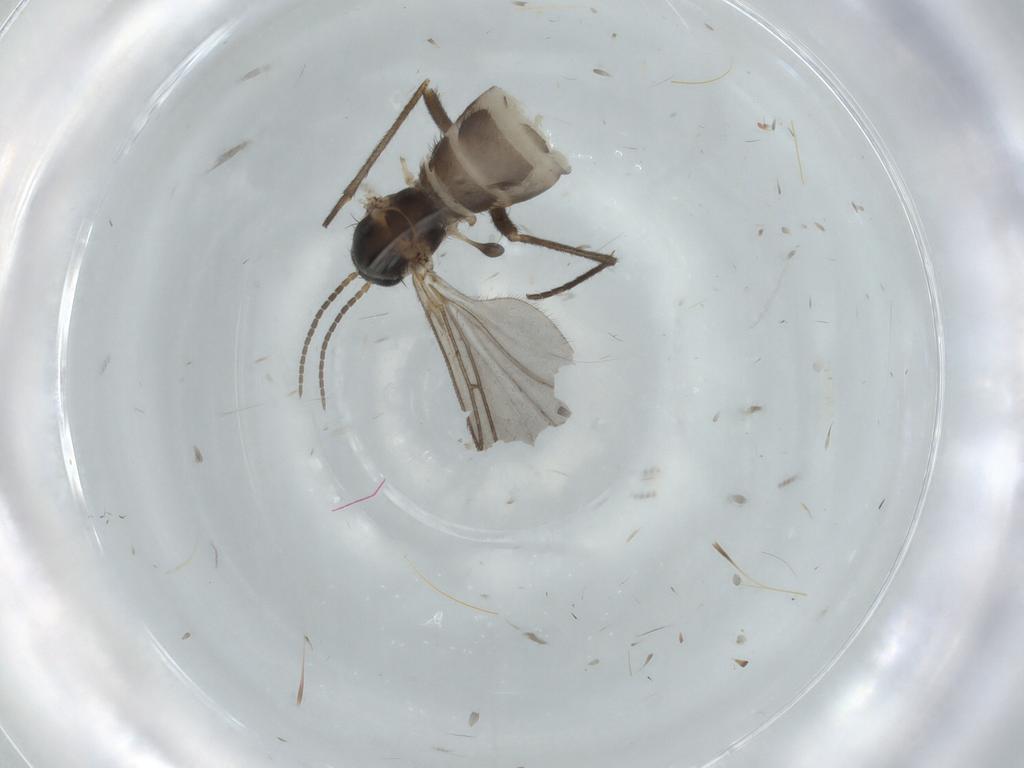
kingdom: Animalia
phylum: Arthropoda
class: Insecta
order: Diptera
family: Sciaridae
